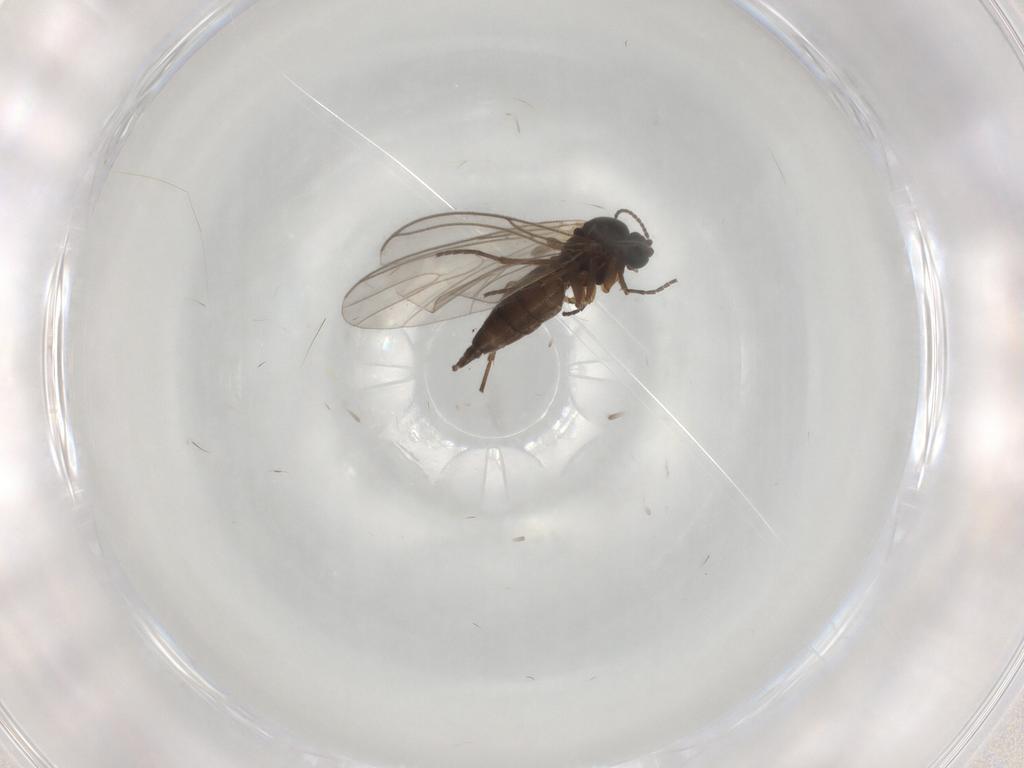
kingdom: Animalia
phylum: Arthropoda
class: Insecta
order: Diptera
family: Sciaridae
